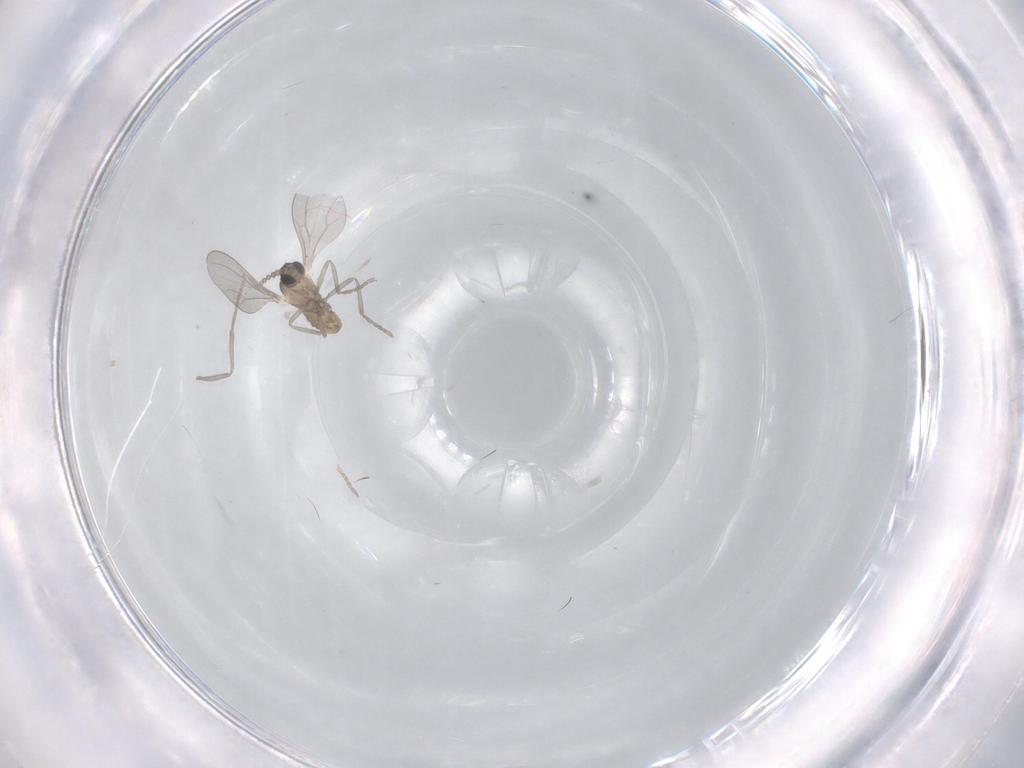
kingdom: Animalia
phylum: Arthropoda
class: Insecta
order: Diptera
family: Cecidomyiidae
